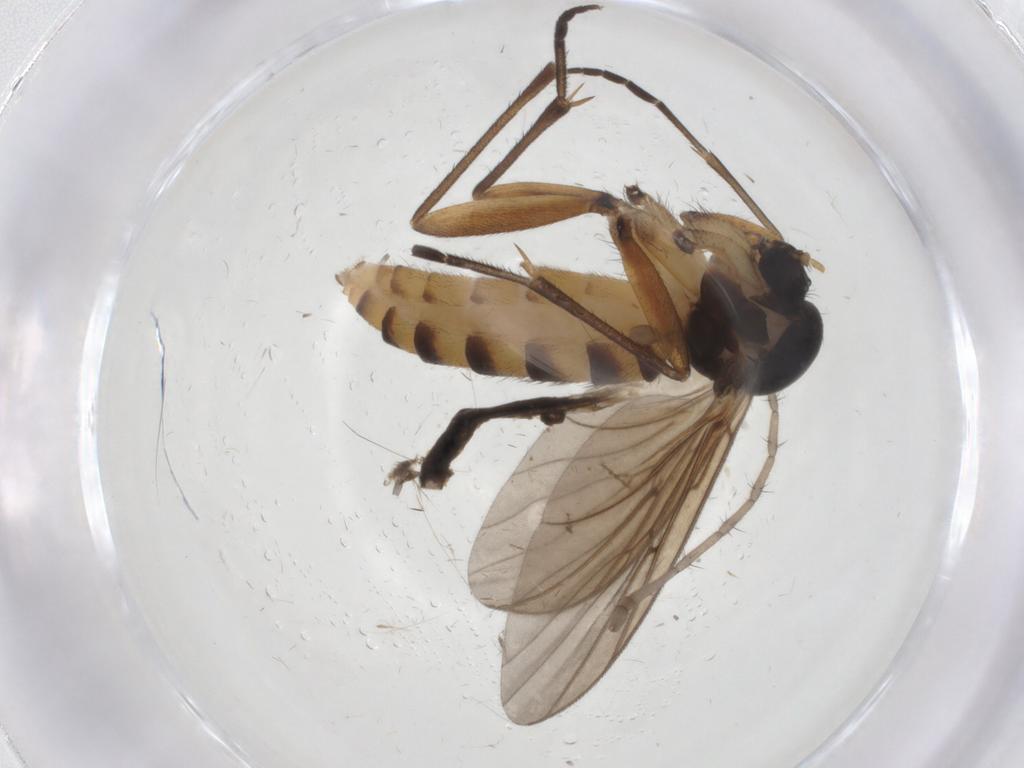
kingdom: Animalia
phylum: Arthropoda
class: Insecta
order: Diptera
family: Mycetophilidae
